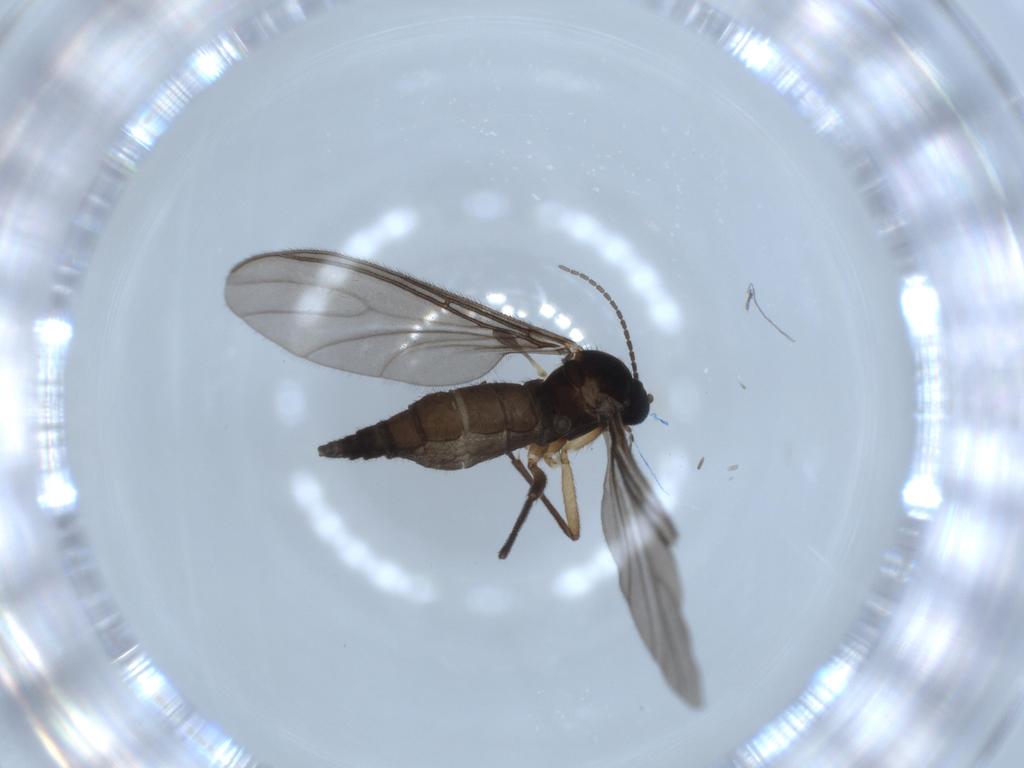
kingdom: Animalia
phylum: Arthropoda
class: Insecta
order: Diptera
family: Sciaridae
